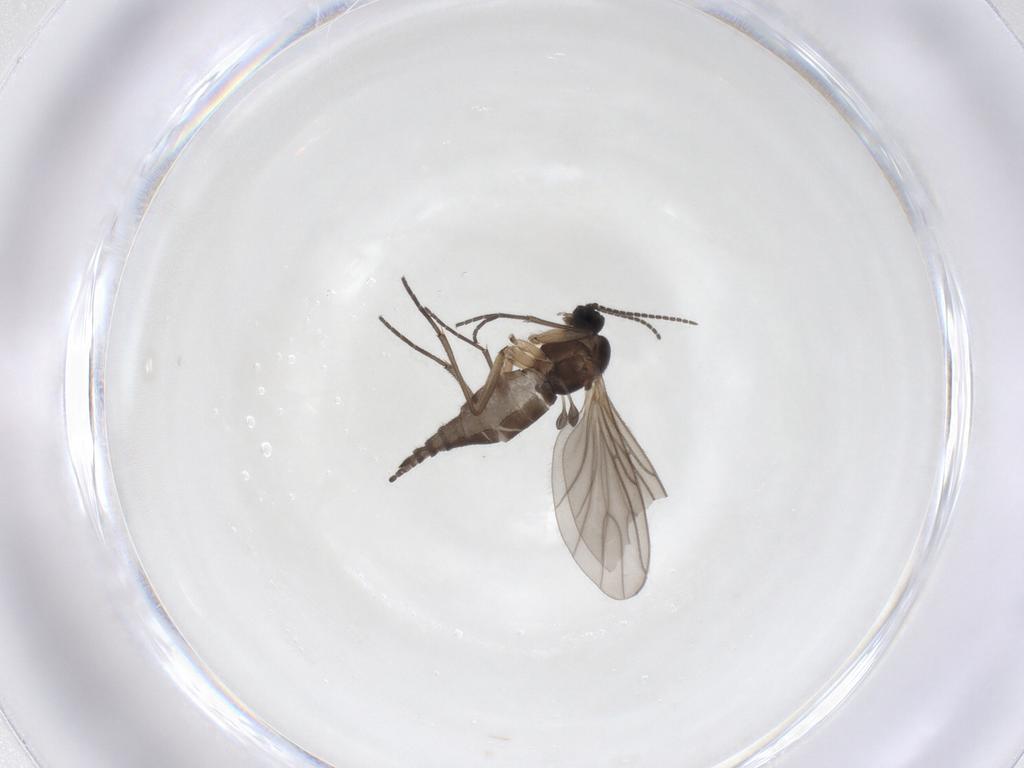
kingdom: Animalia
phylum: Arthropoda
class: Insecta
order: Diptera
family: Sciaridae
